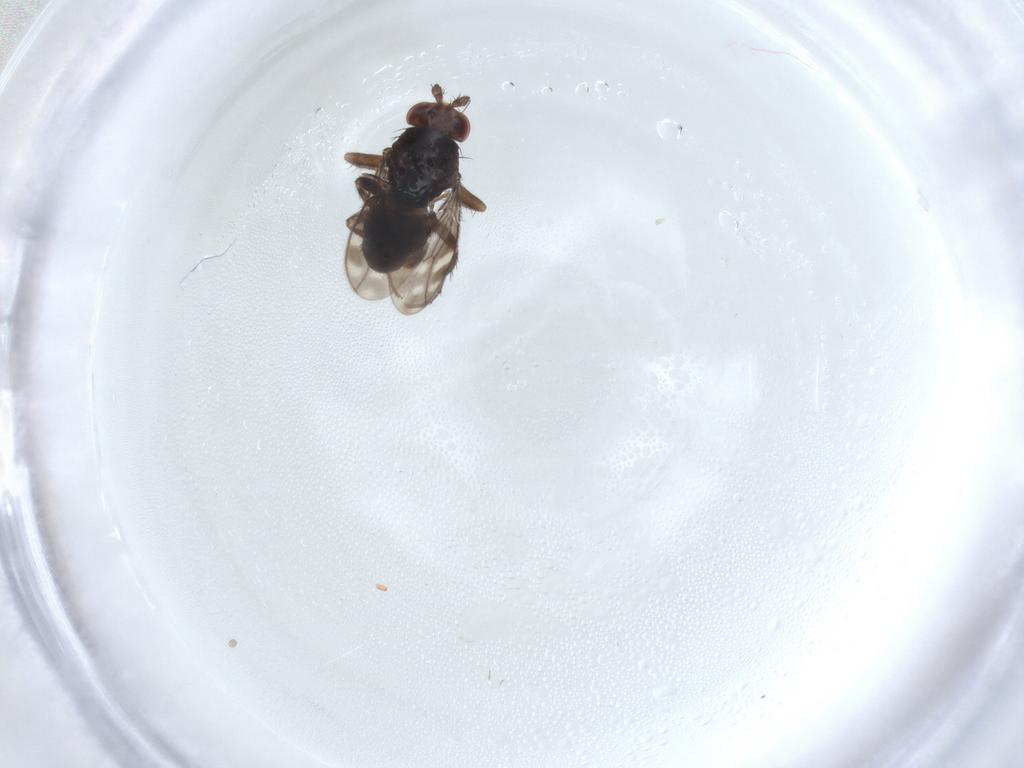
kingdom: Animalia
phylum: Arthropoda
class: Insecta
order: Diptera
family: Sphaeroceridae
